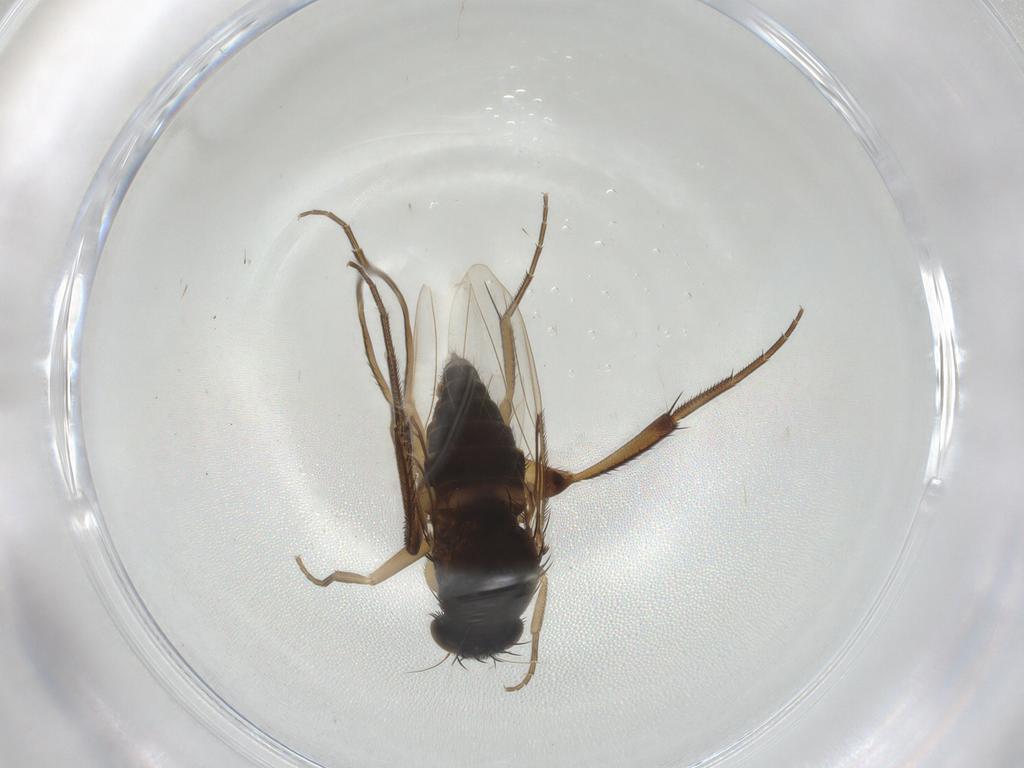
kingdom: Animalia
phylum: Arthropoda
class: Insecta
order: Diptera
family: Phoridae
